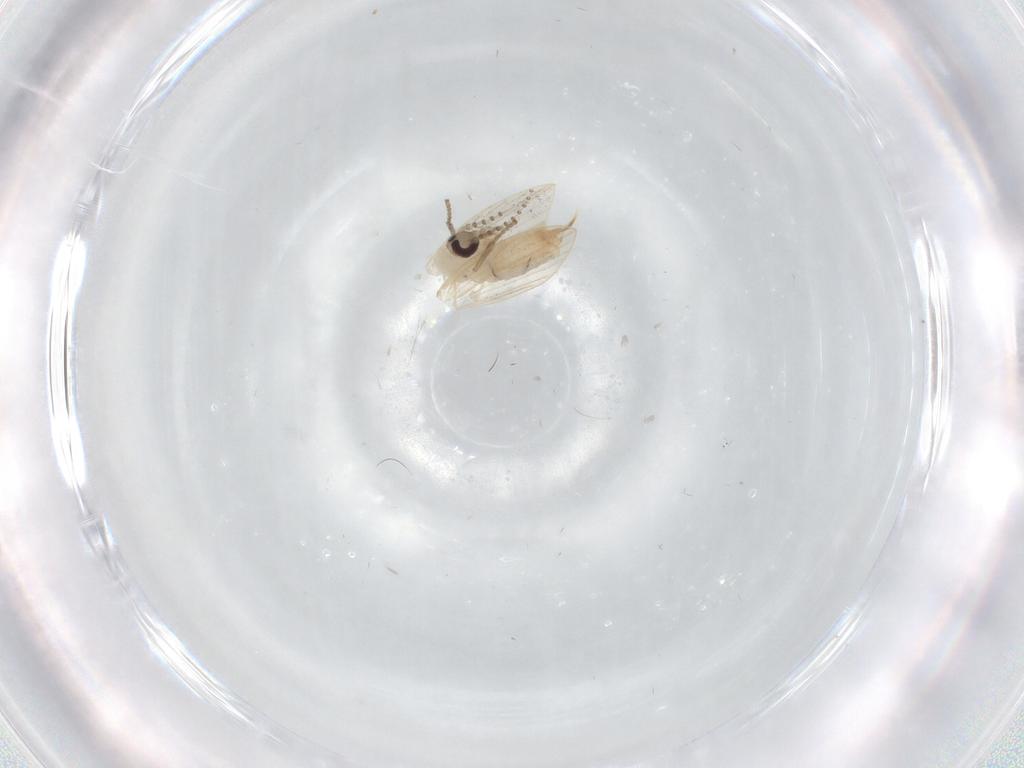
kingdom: Animalia
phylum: Arthropoda
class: Insecta
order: Diptera
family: Psychodidae
